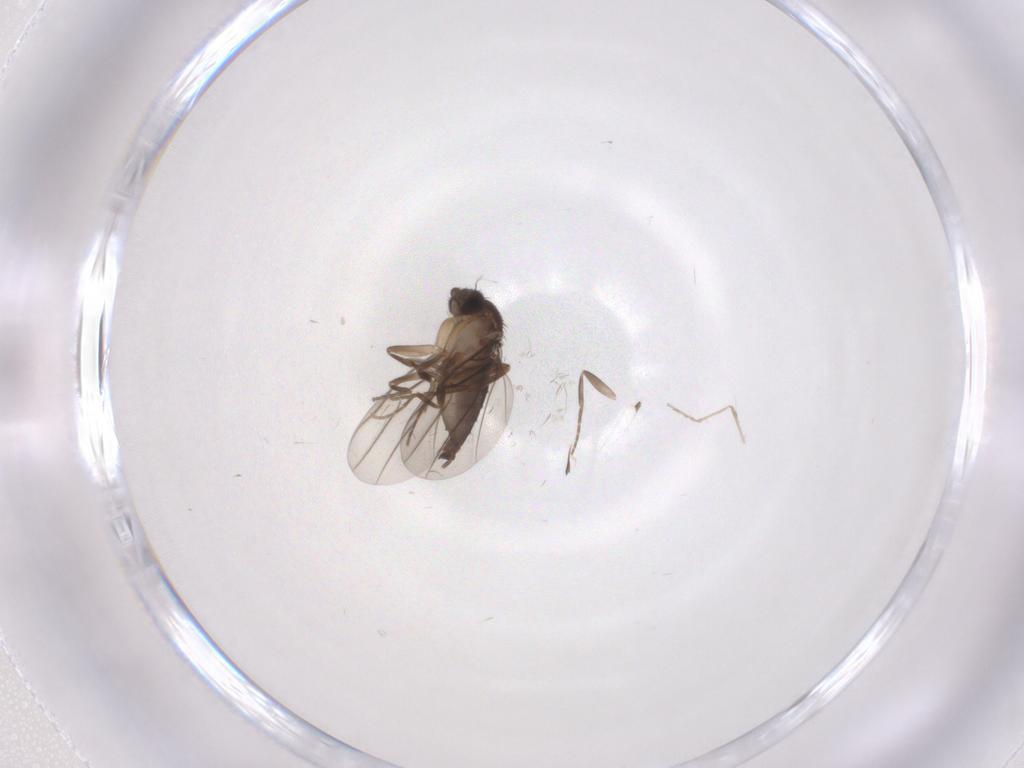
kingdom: Animalia
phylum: Arthropoda
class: Insecta
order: Diptera
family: Phoridae
